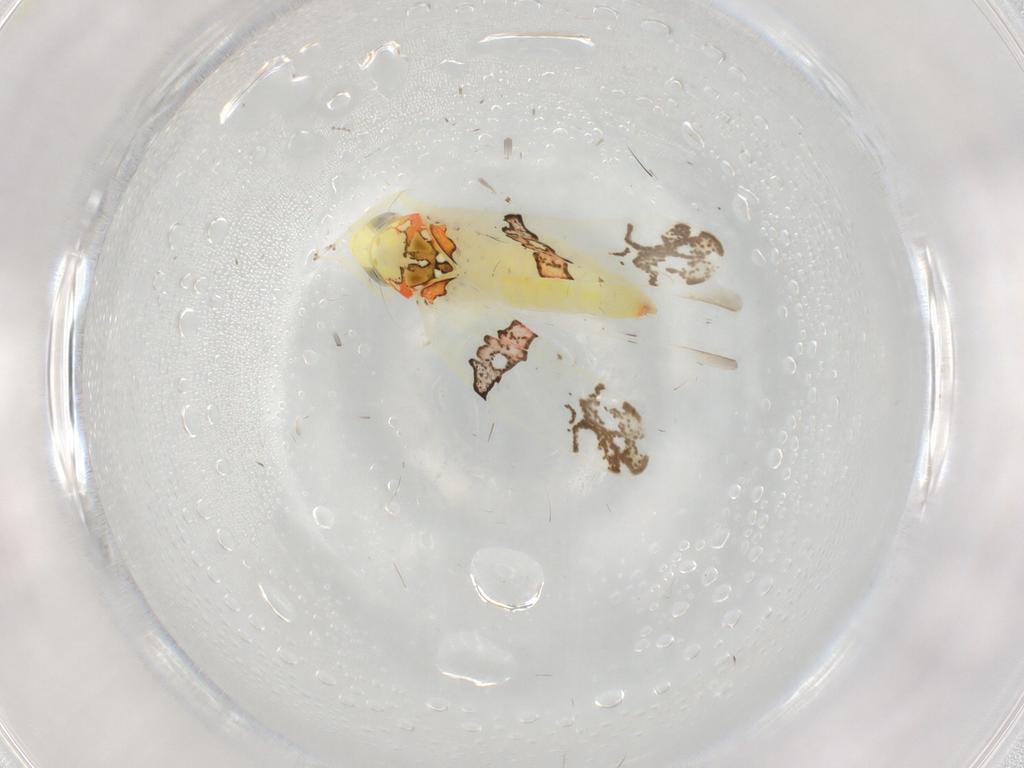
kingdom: Animalia
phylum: Arthropoda
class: Insecta
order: Hemiptera
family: Cicadellidae
